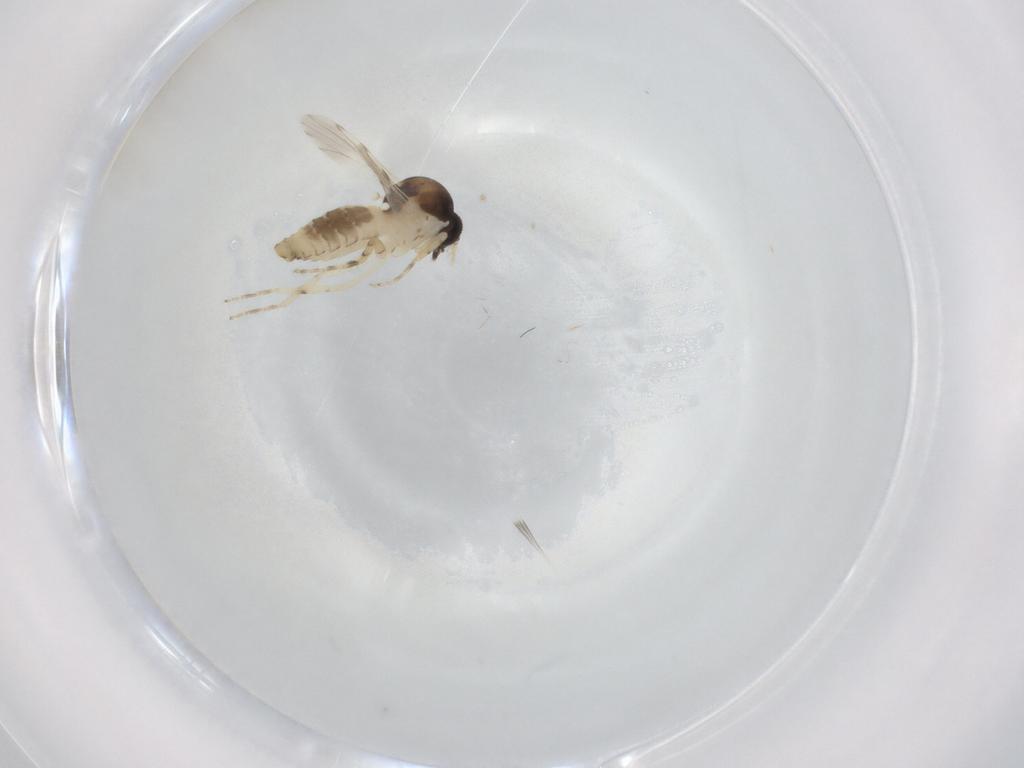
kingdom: Animalia
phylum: Arthropoda
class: Insecta
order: Diptera
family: Ceratopogonidae
